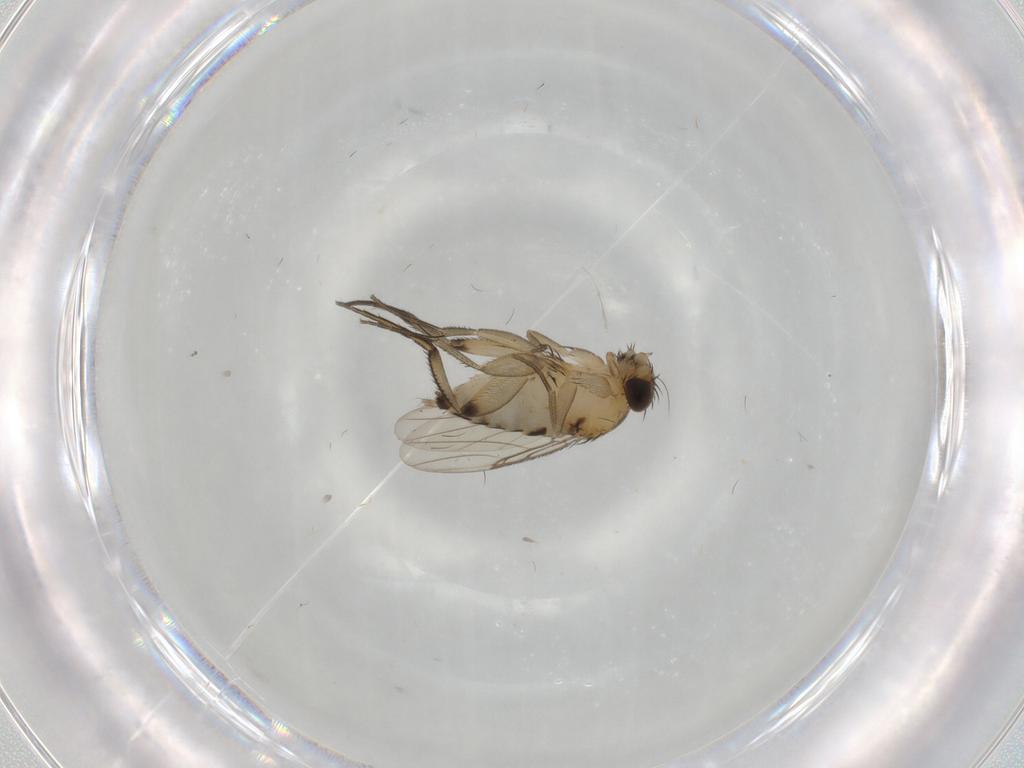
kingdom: Animalia
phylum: Arthropoda
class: Insecta
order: Diptera
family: Phoridae
